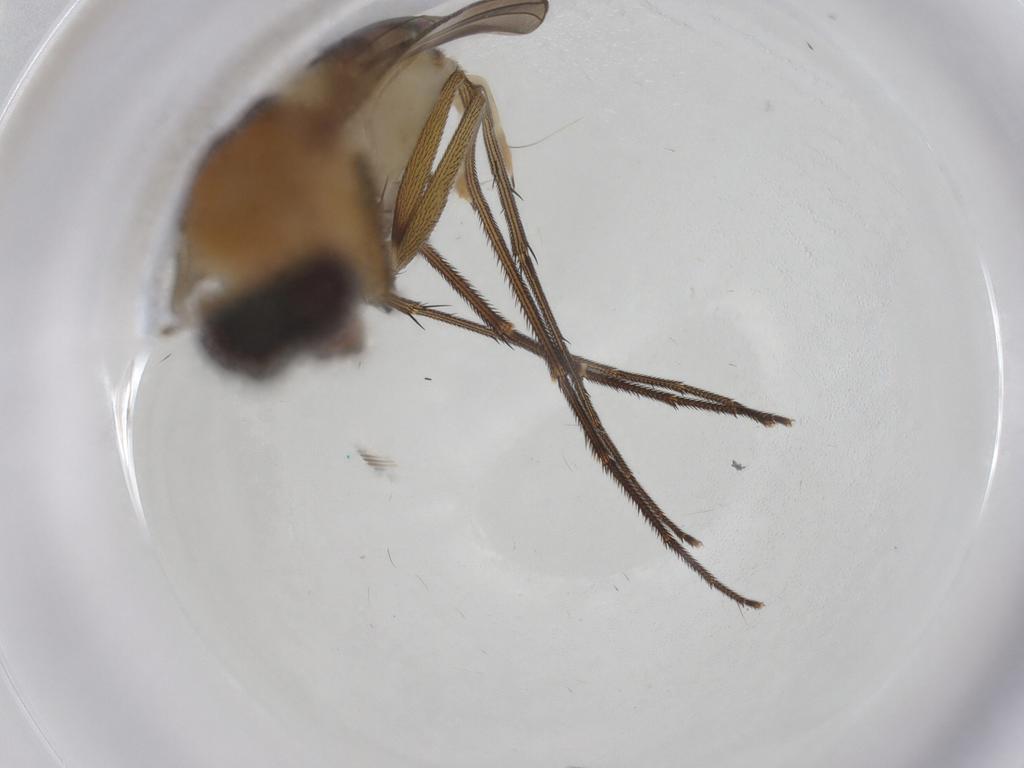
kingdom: Animalia
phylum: Arthropoda
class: Insecta
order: Diptera
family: Dolichopodidae
